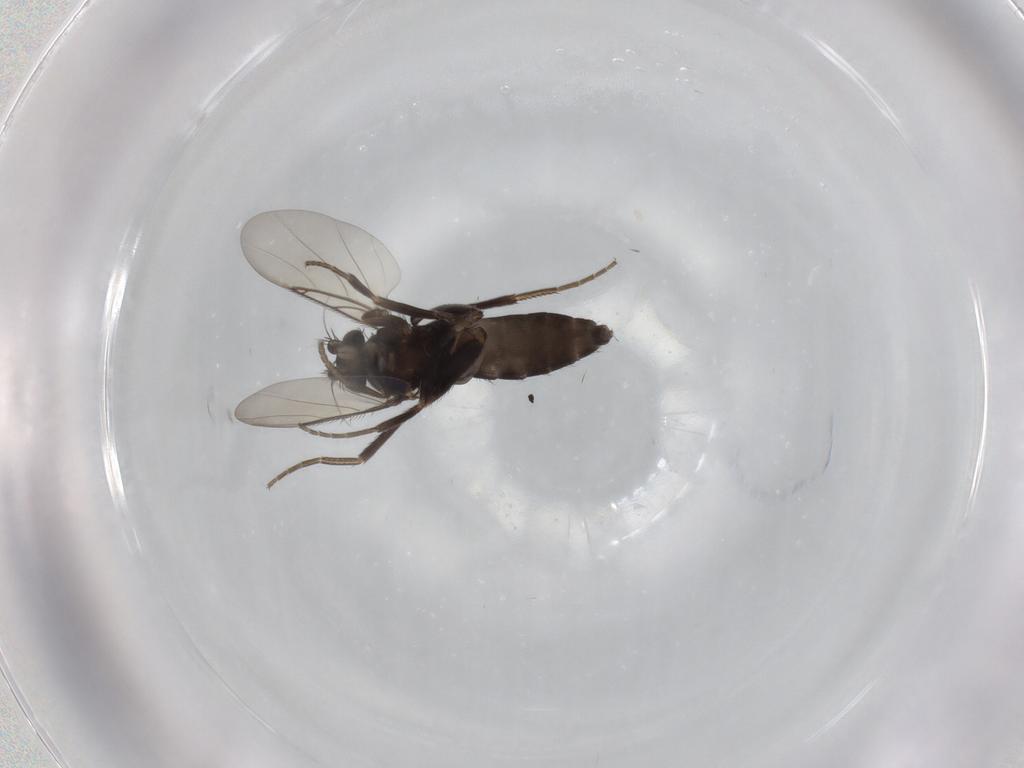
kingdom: Animalia
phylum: Arthropoda
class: Insecta
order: Diptera
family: Phoridae
